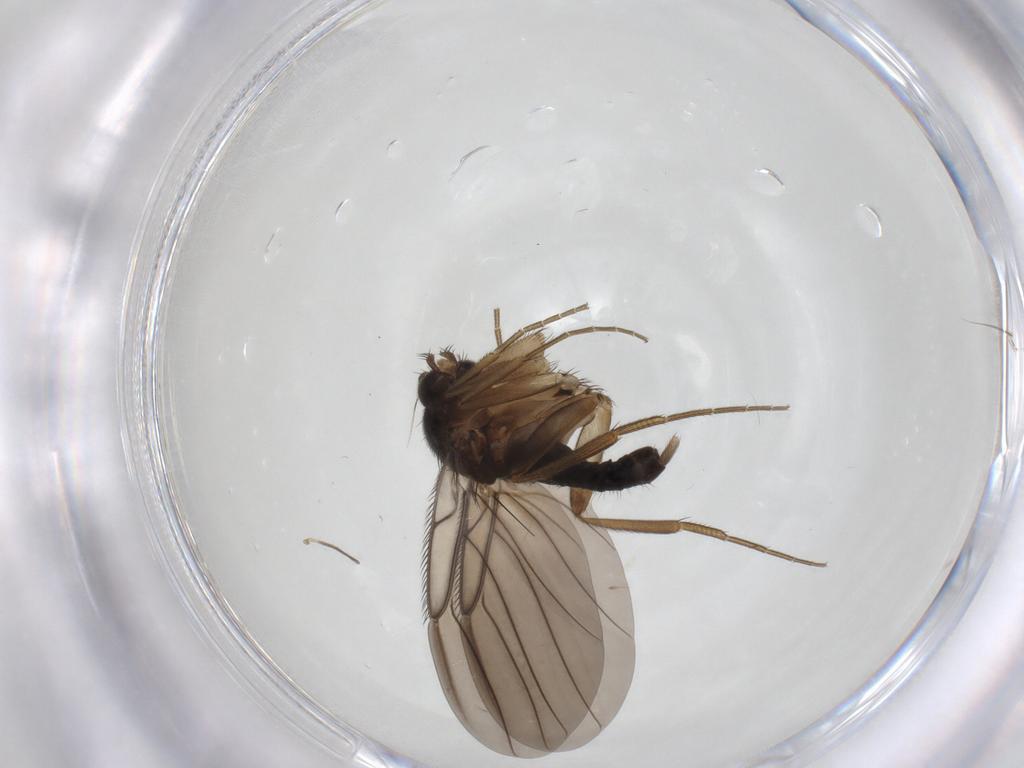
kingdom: Animalia
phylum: Arthropoda
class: Insecta
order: Diptera
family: Phoridae
